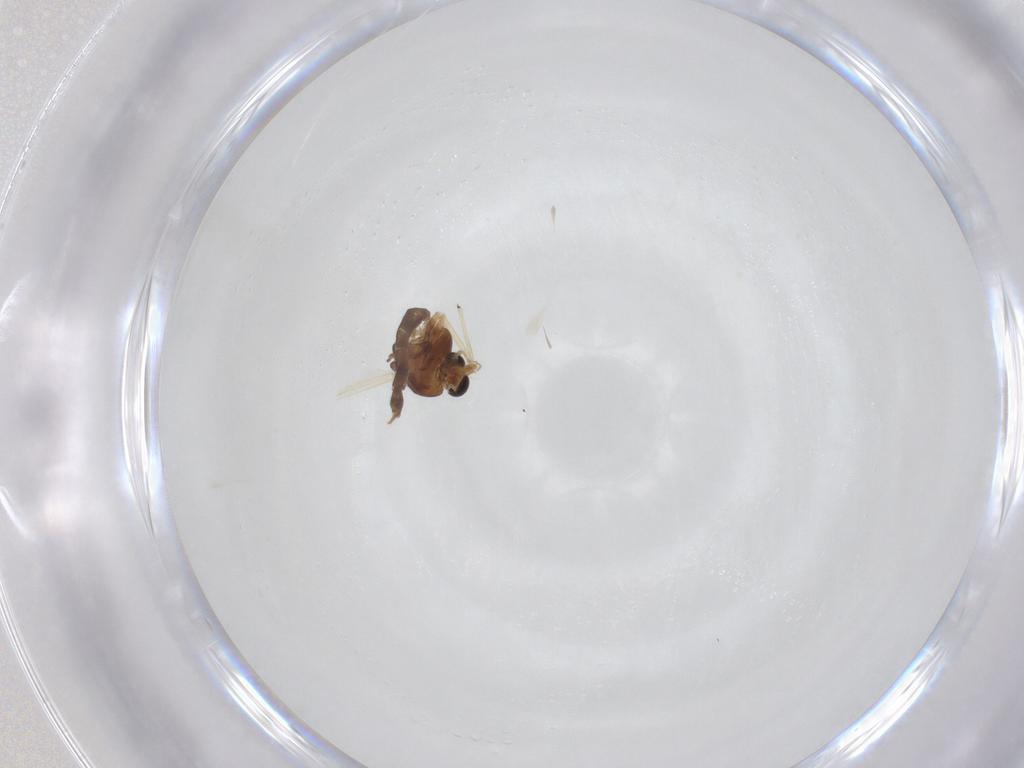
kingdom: Animalia
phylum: Arthropoda
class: Insecta
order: Diptera
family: Chironomidae
